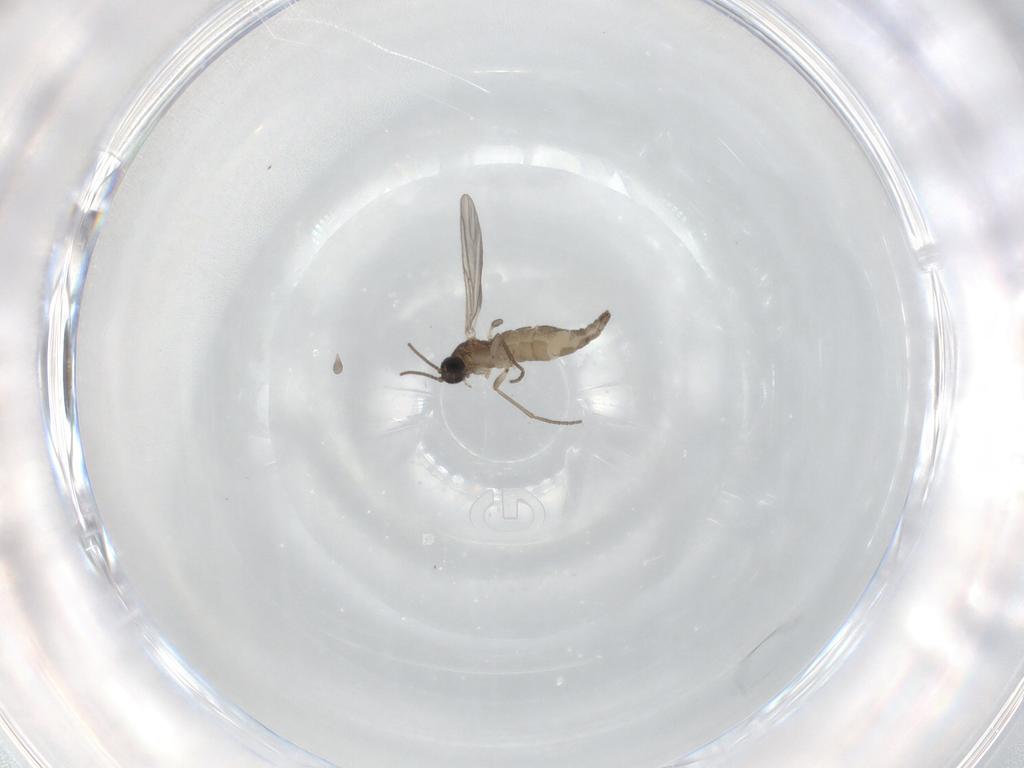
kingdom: Animalia
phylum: Arthropoda
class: Insecta
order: Diptera
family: Sciaridae
